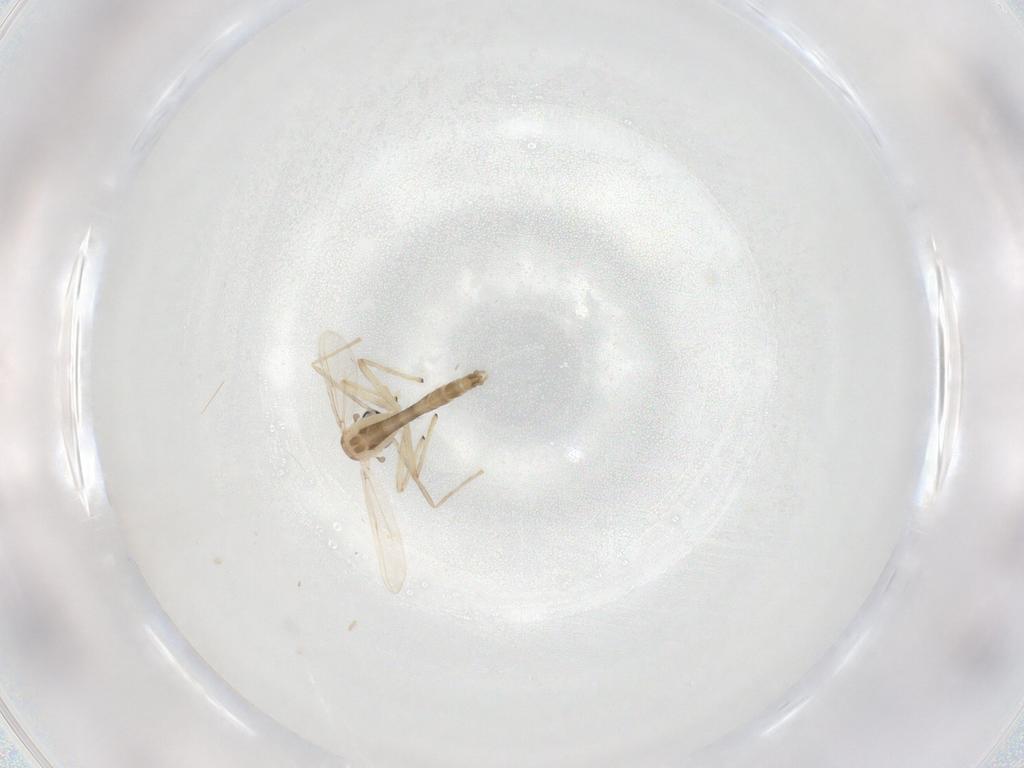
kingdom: Animalia
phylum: Arthropoda
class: Insecta
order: Diptera
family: Chironomidae
